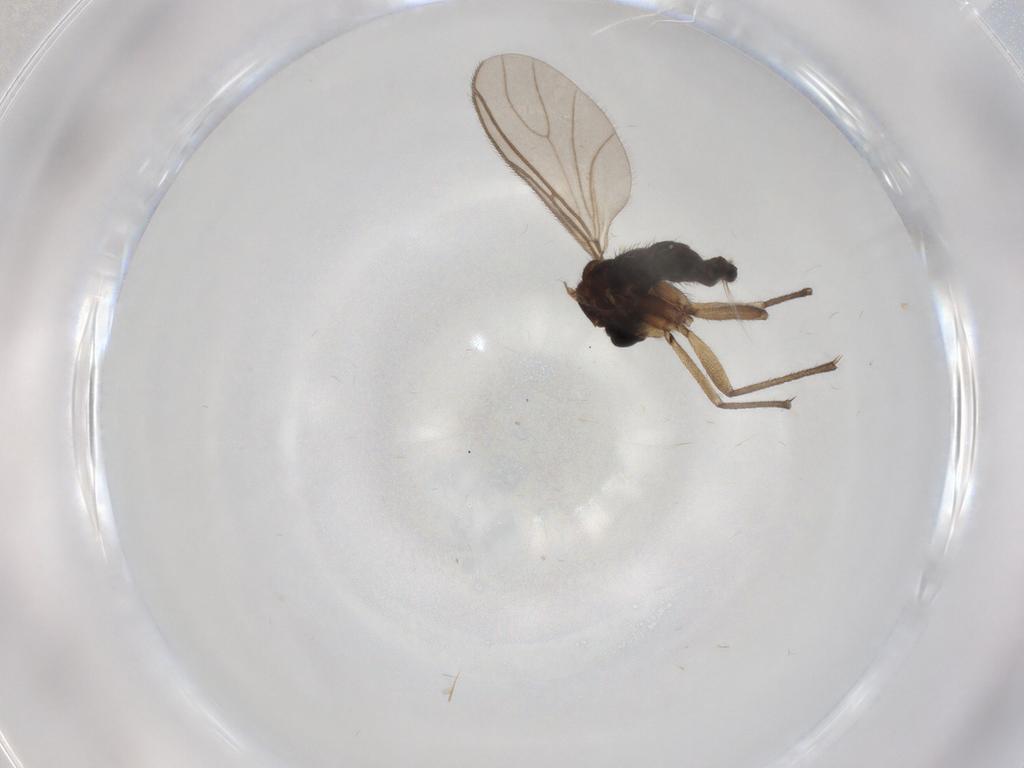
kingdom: Animalia
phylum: Arthropoda
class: Insecta
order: Diptera
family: Sciaridae
